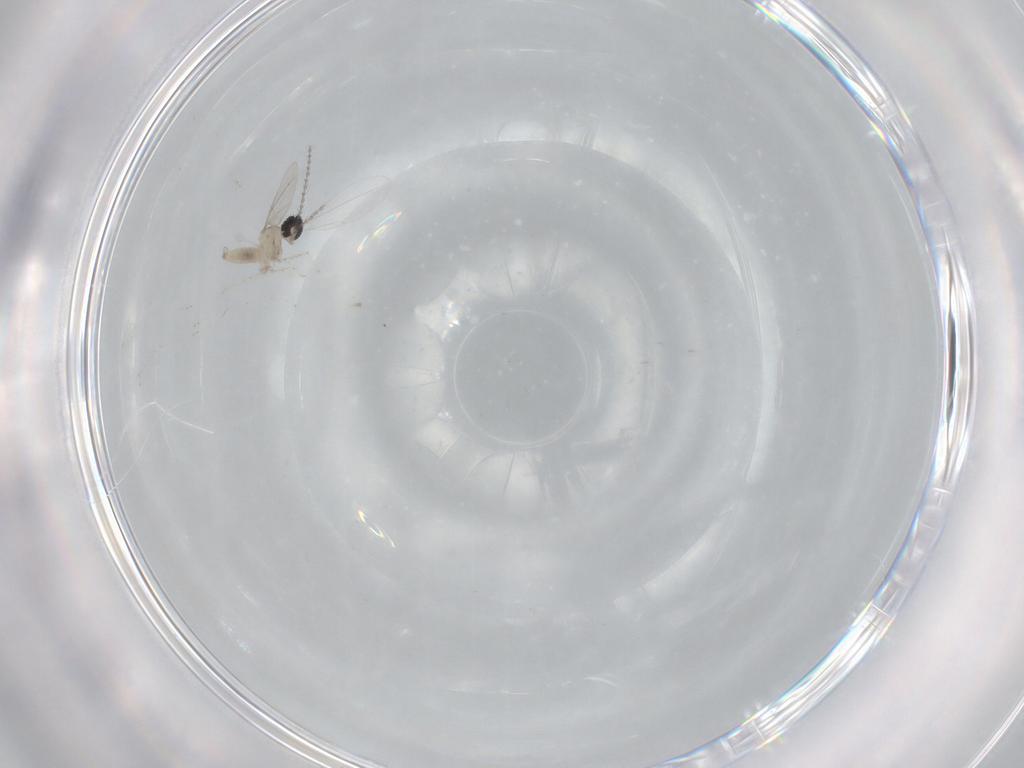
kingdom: Animalia
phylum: Arthropoda
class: Insecta
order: Diptera
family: Cecidomyiidae
